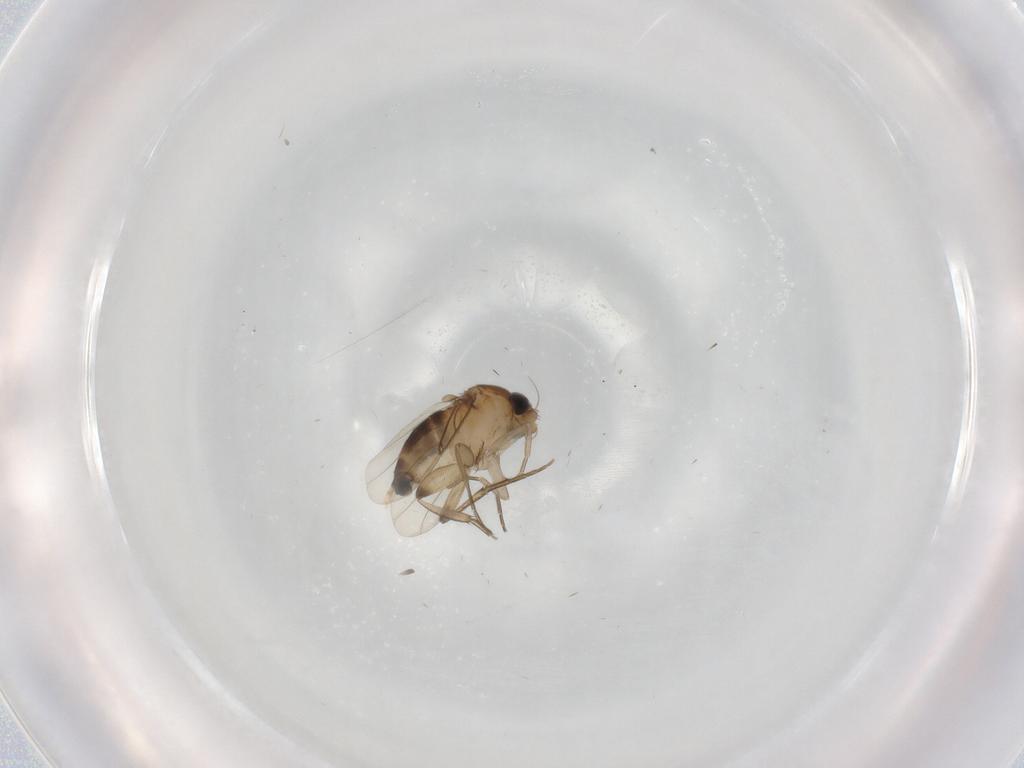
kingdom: Animalia
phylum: Arthropoda
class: Insecta
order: Diptera
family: Phoridae
